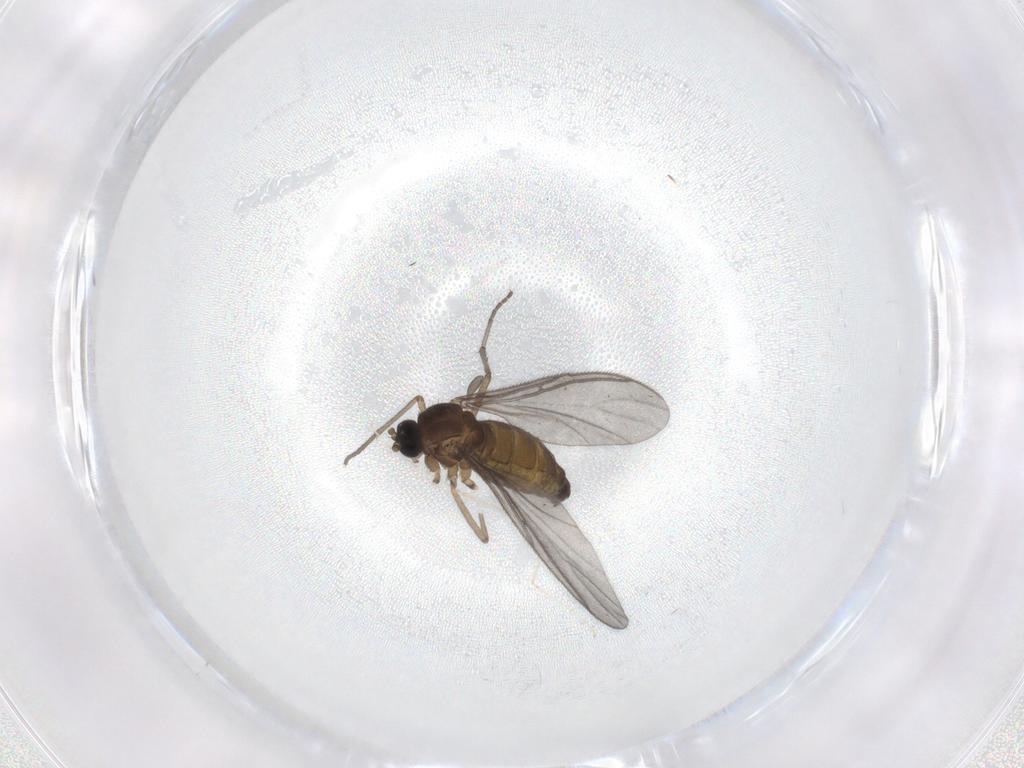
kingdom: Animalia
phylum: Arthropoda
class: Insecta
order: Diptera
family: Sciaridae
